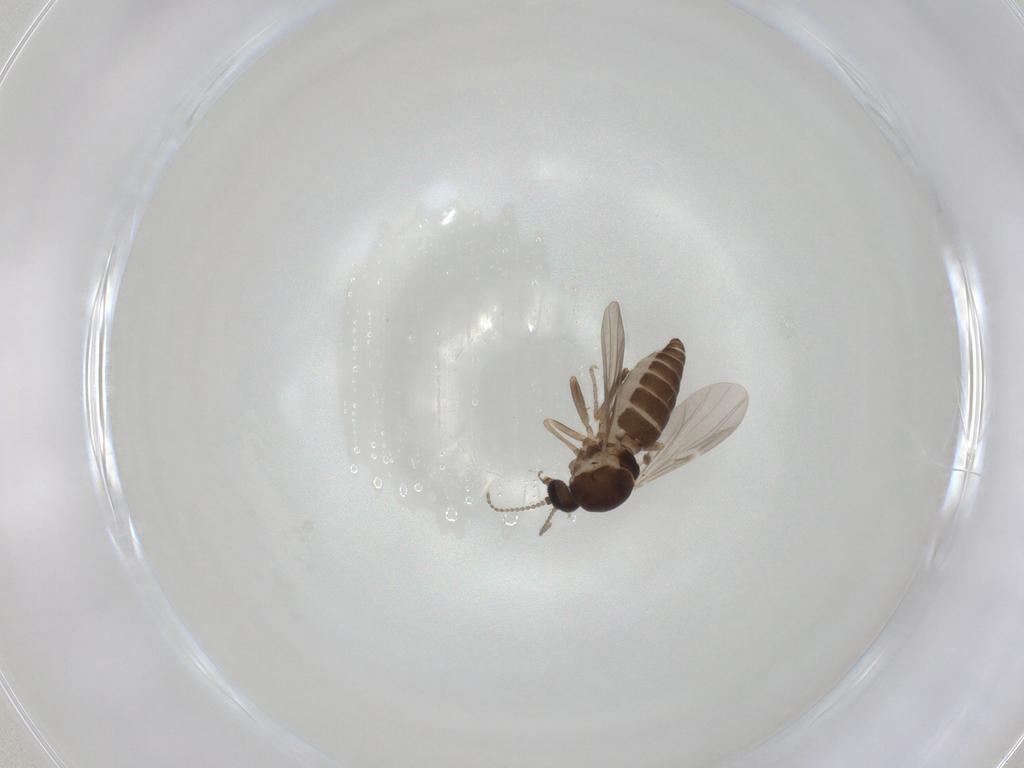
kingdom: Animalia
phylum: Arthropoda
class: Insecta
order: Diptera
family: Ceratopogonidae
